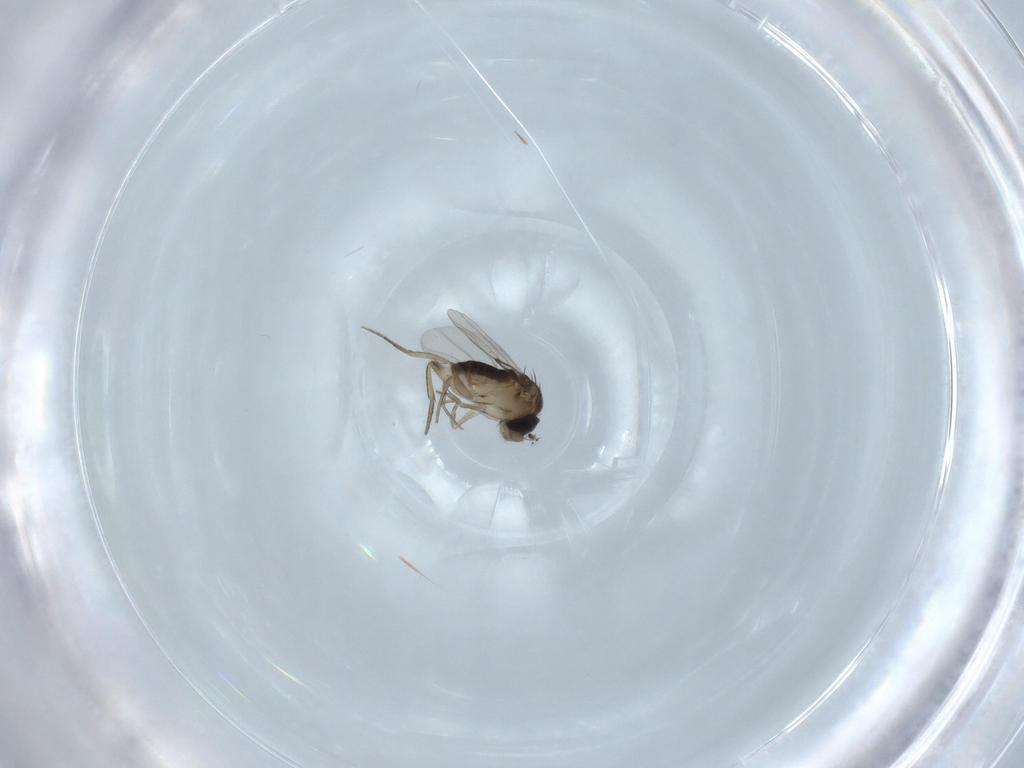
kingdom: Animalia
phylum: Arthropoda
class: Insecta
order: Diptera
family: Phoridae
